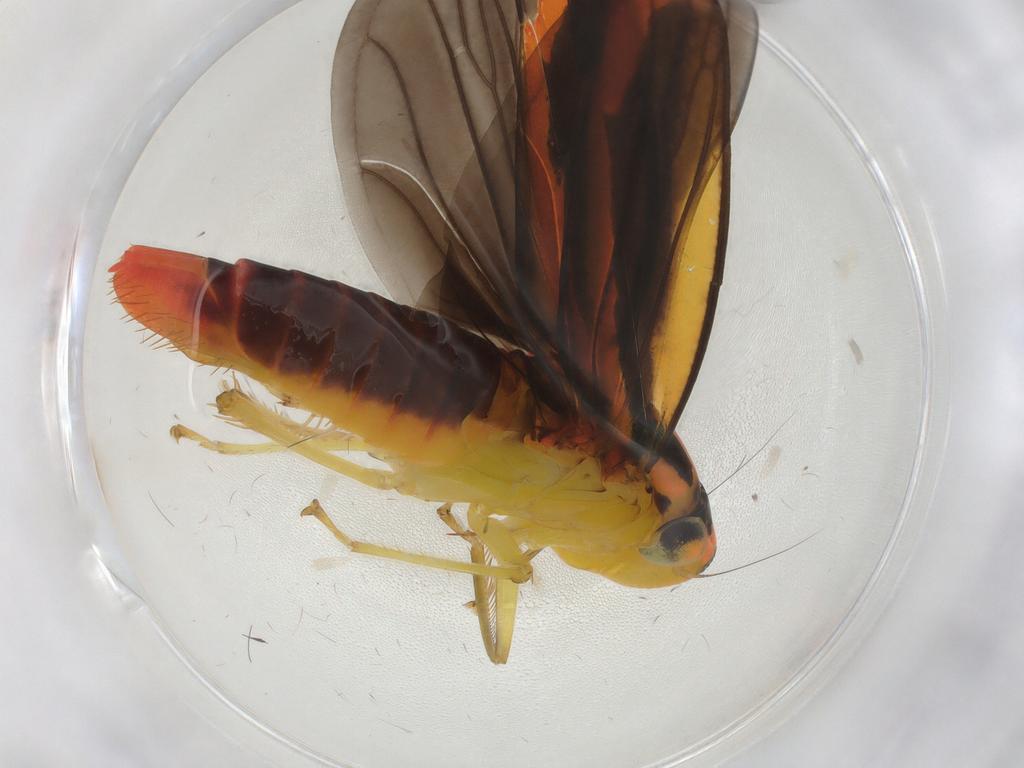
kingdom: Animalia
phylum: Arthropoda
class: Insecta
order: Hemiptera
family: Cicadellidae
